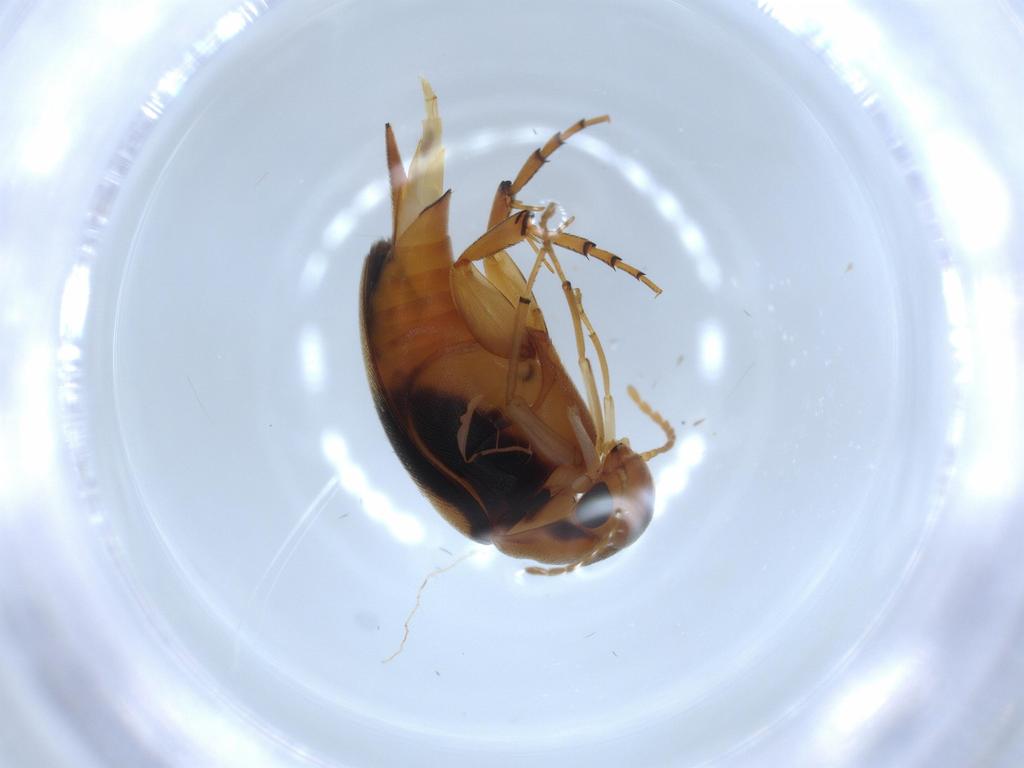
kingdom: Animalia
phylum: Arthropoda
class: Insecta
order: Coleoptera
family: Mordellidae
